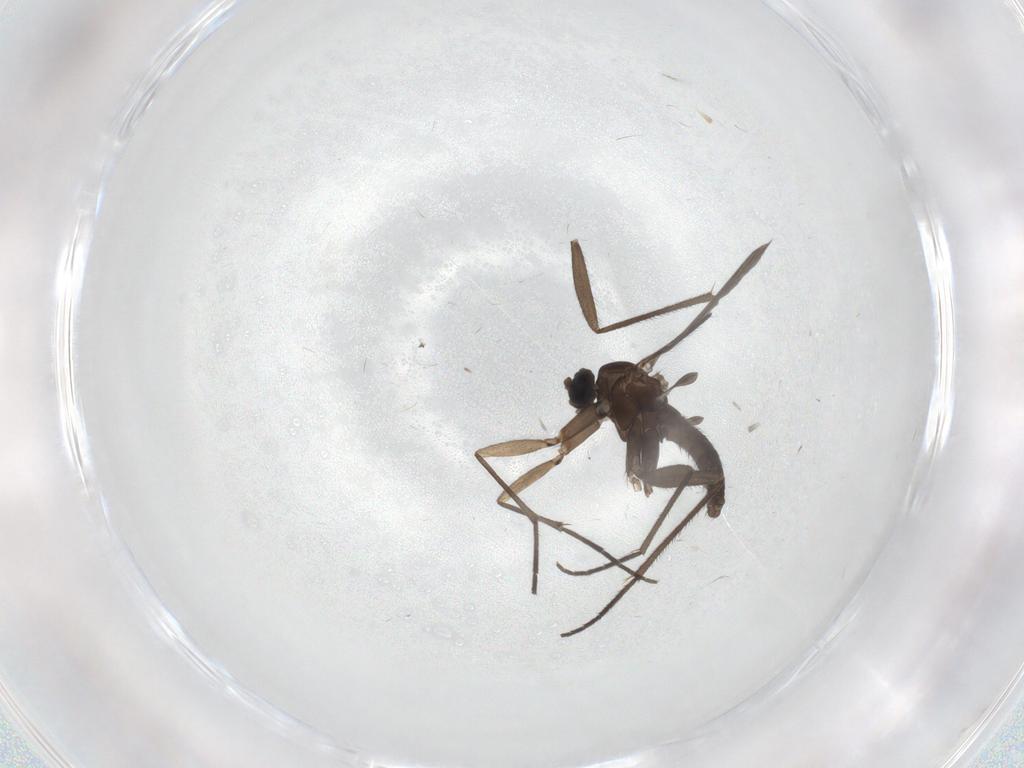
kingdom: Animalia
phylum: Arthropoda
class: Insecta
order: Diptera
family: Sciaridae
